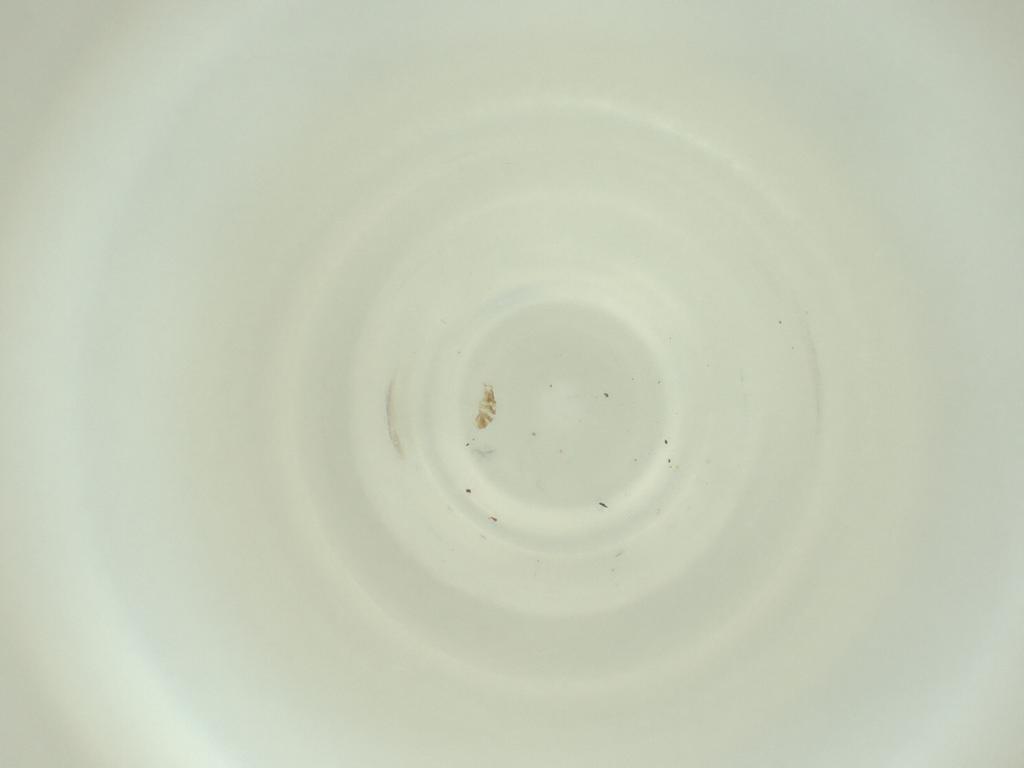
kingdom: Animalia
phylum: Arthropoda
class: Insecta
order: Diptera
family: Cecidomyiidae
